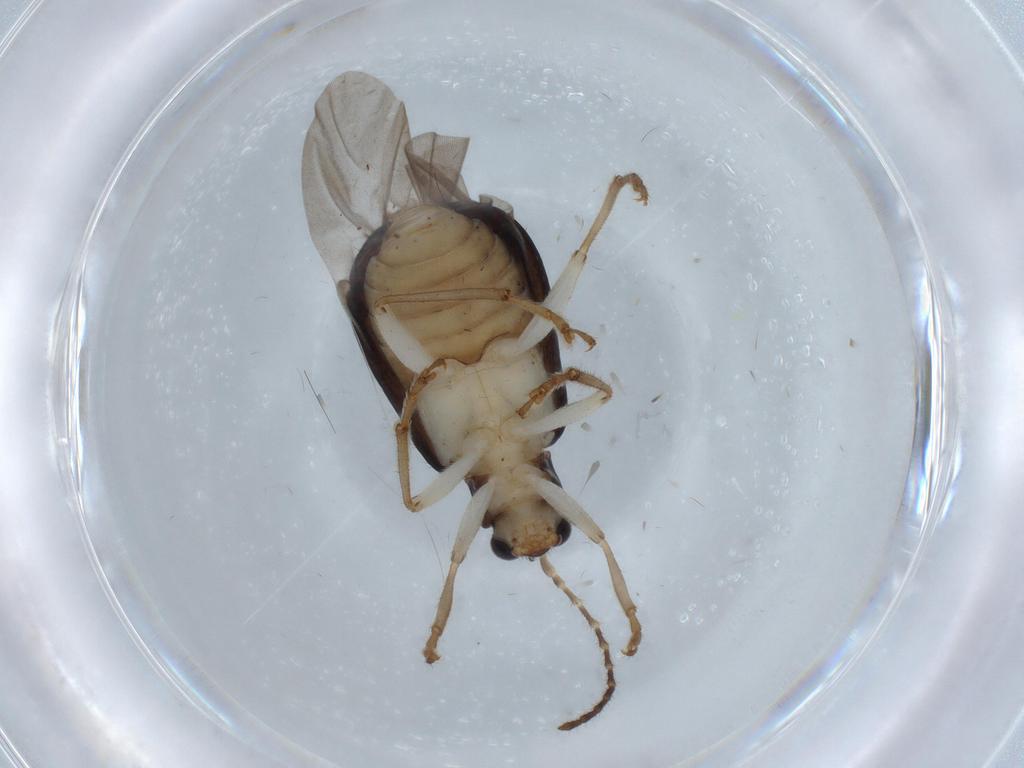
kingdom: Animalia
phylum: Arthropoda
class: Insecta
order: Coleoptera
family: Chrysomelidae
